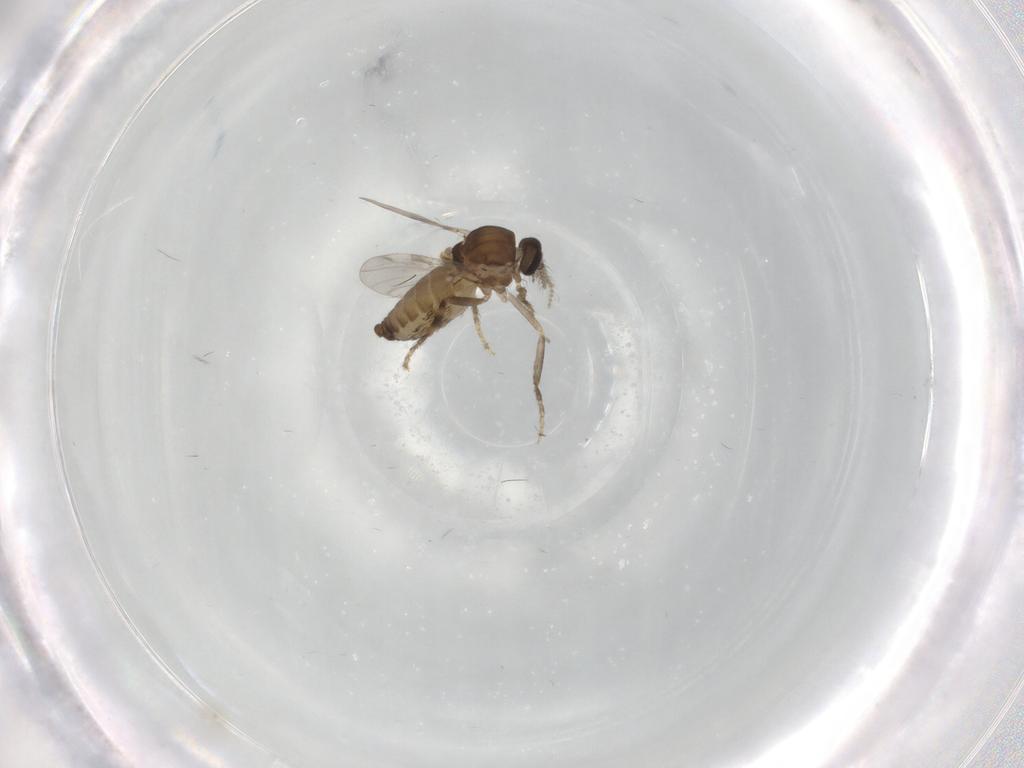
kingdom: Animalia
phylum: Arthropoda
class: Insecta
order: Diptera
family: Ceratopogonidae
